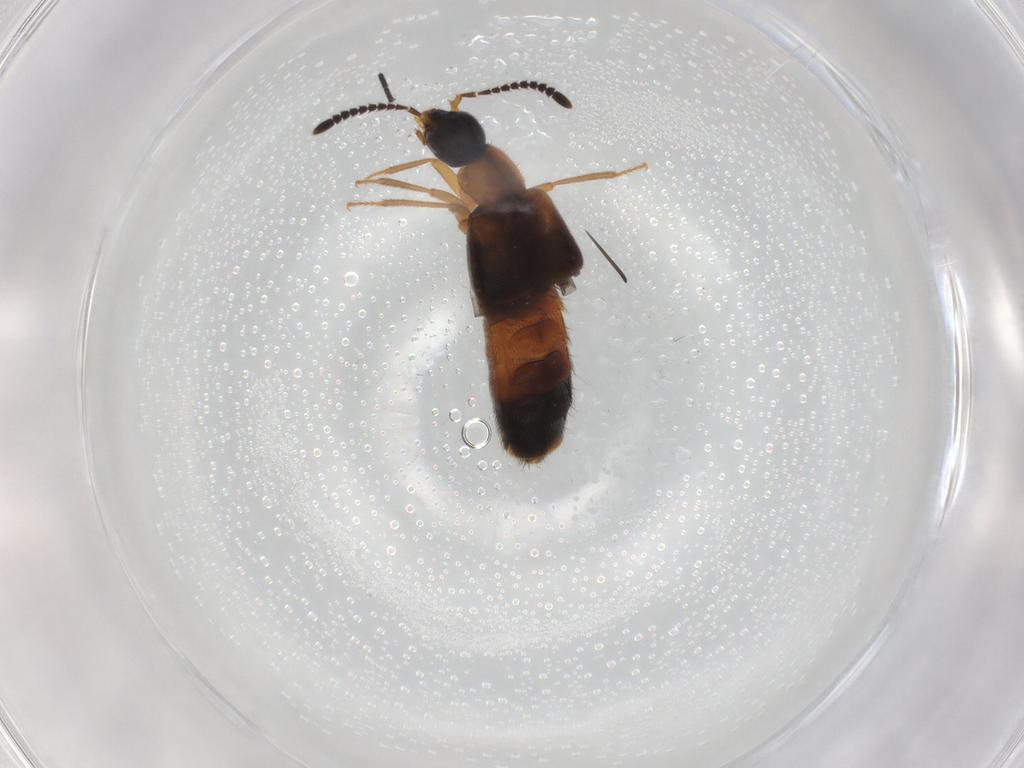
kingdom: Animalia
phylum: Arthropoda
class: Insecta
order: Coleoptera
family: Staphylinidae
